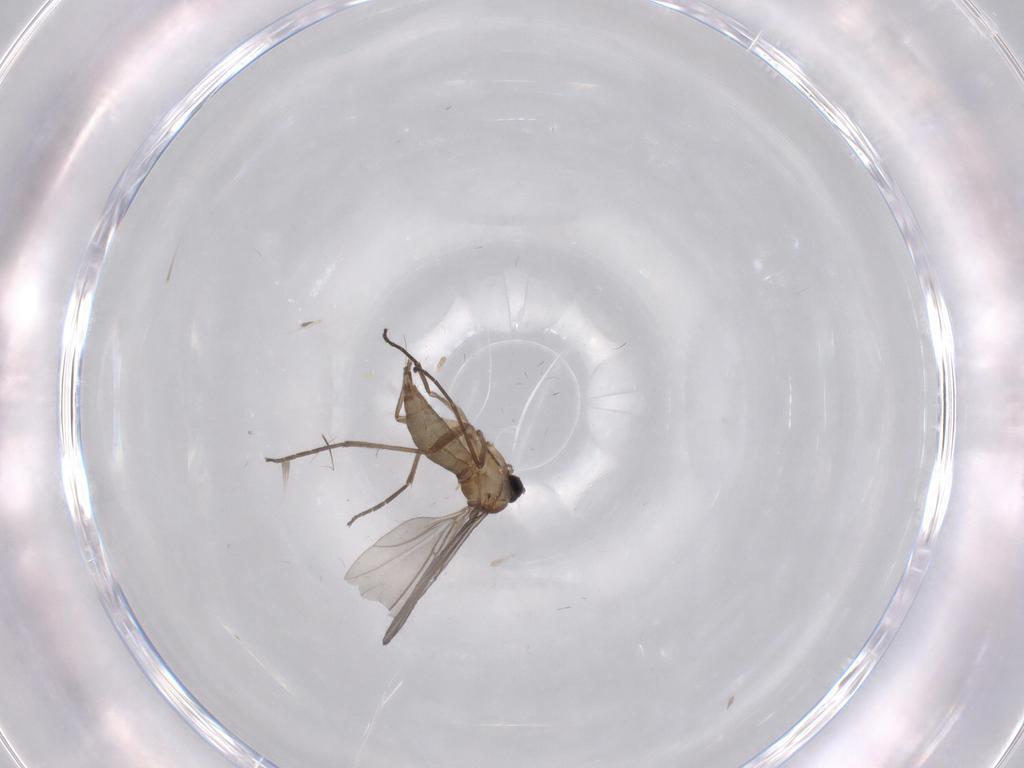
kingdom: Animalia
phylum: Arthropoda
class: Insecta
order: Diptera
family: Sciaridae
